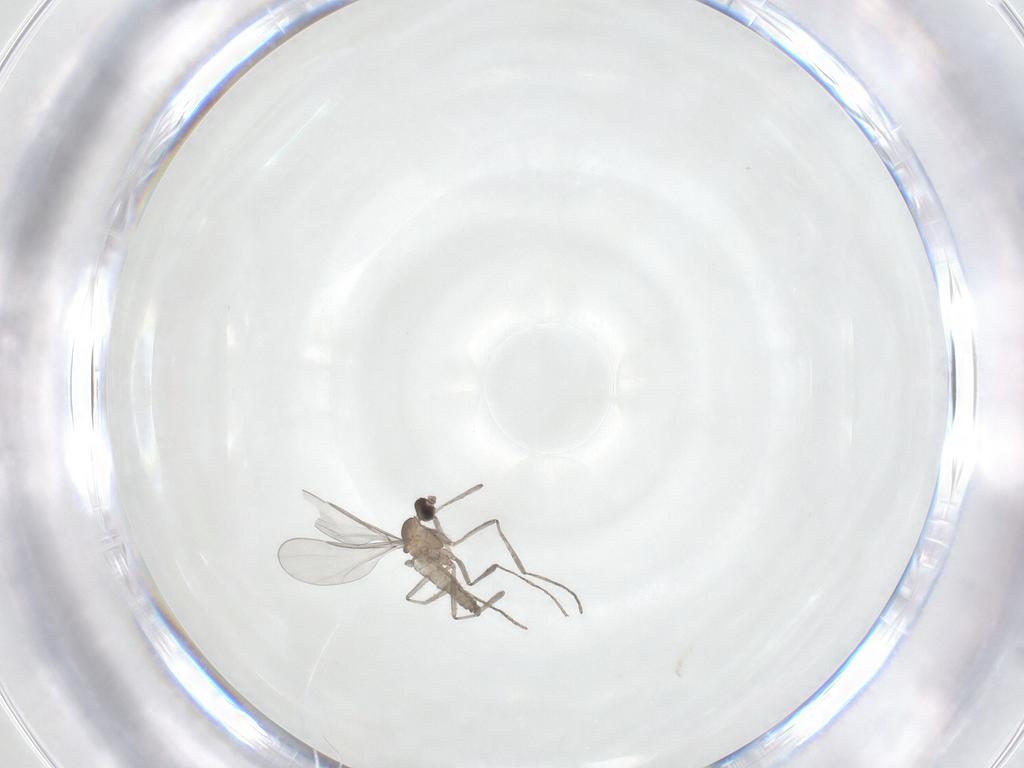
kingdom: Animalia
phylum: Arthropoda
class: Insecta
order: Diptera
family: Cecidomyiidae
